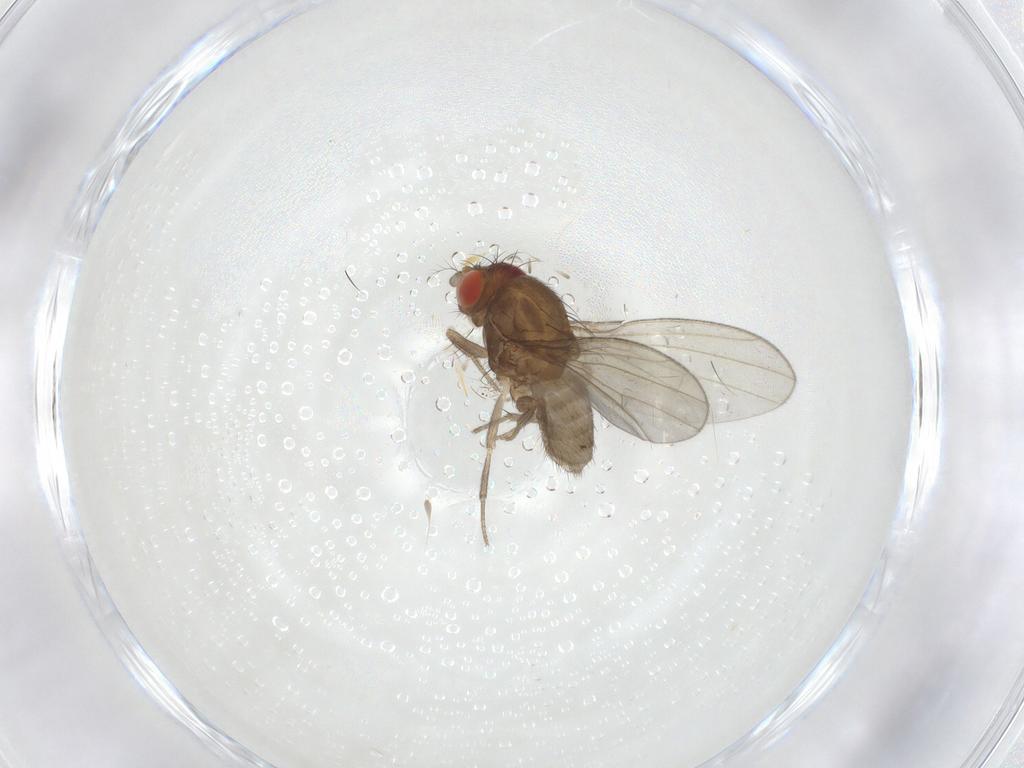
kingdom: Animalia
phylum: Arthropoda
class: Insecta
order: Diptera
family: Drosophilidae
